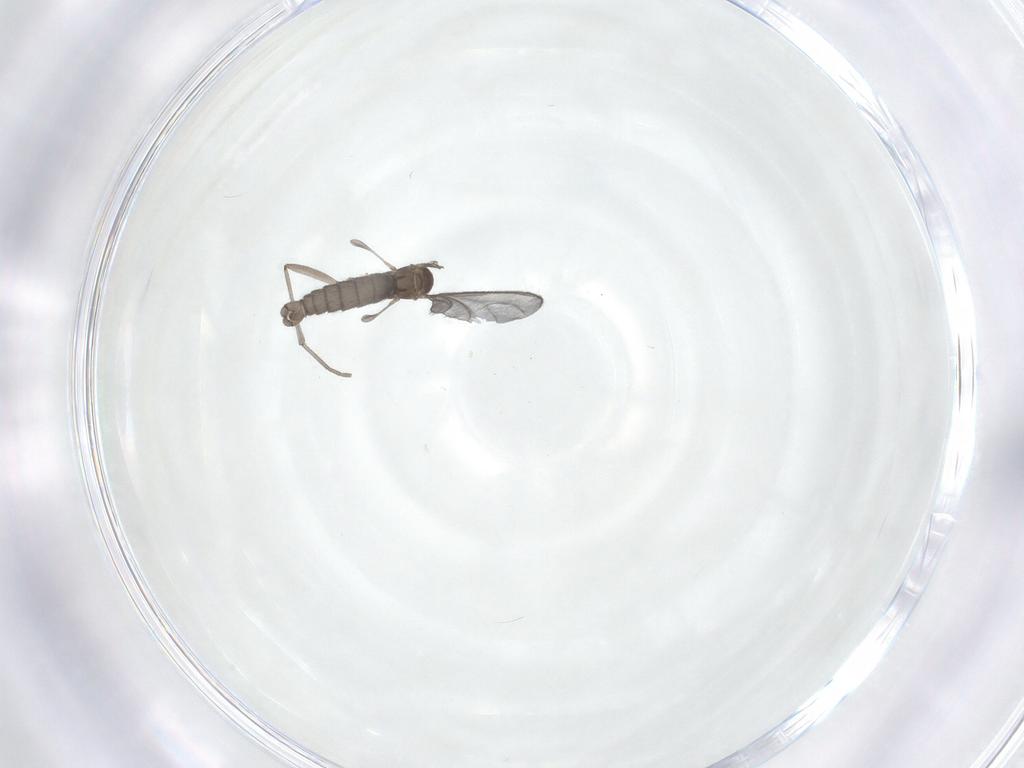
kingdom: Animalia
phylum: Arthropoda
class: Insecta
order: Diptera
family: Sciaridae
